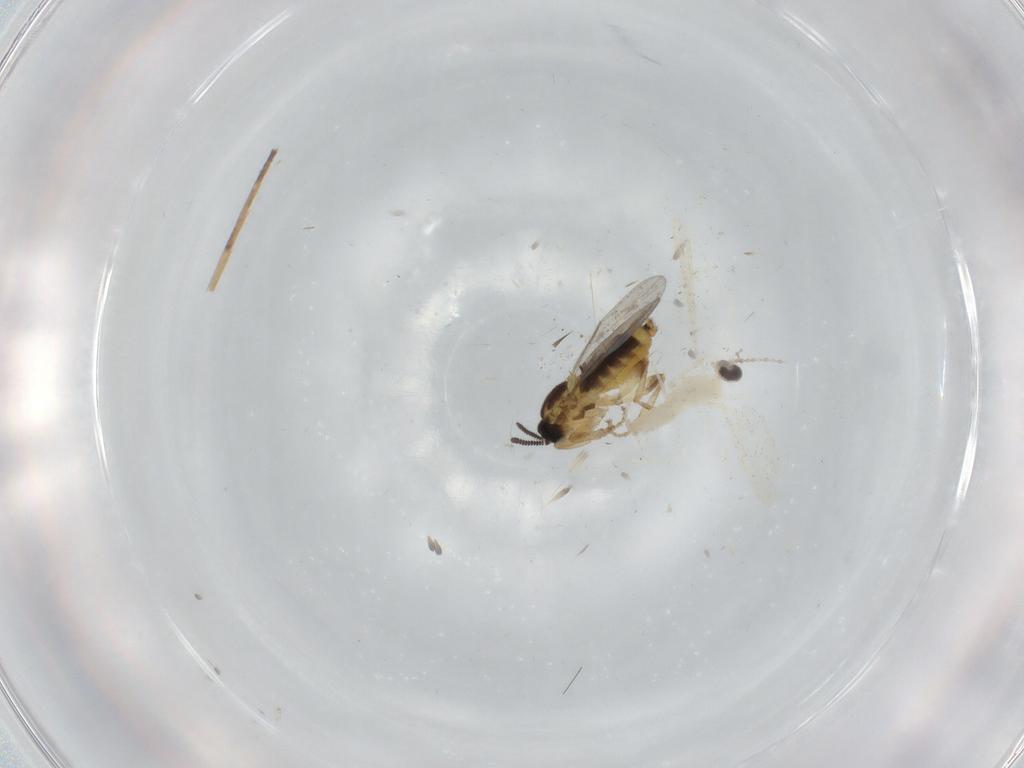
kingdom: Animalia
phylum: Arthropoda
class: Insecta
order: Diptera
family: Scatopsidae
